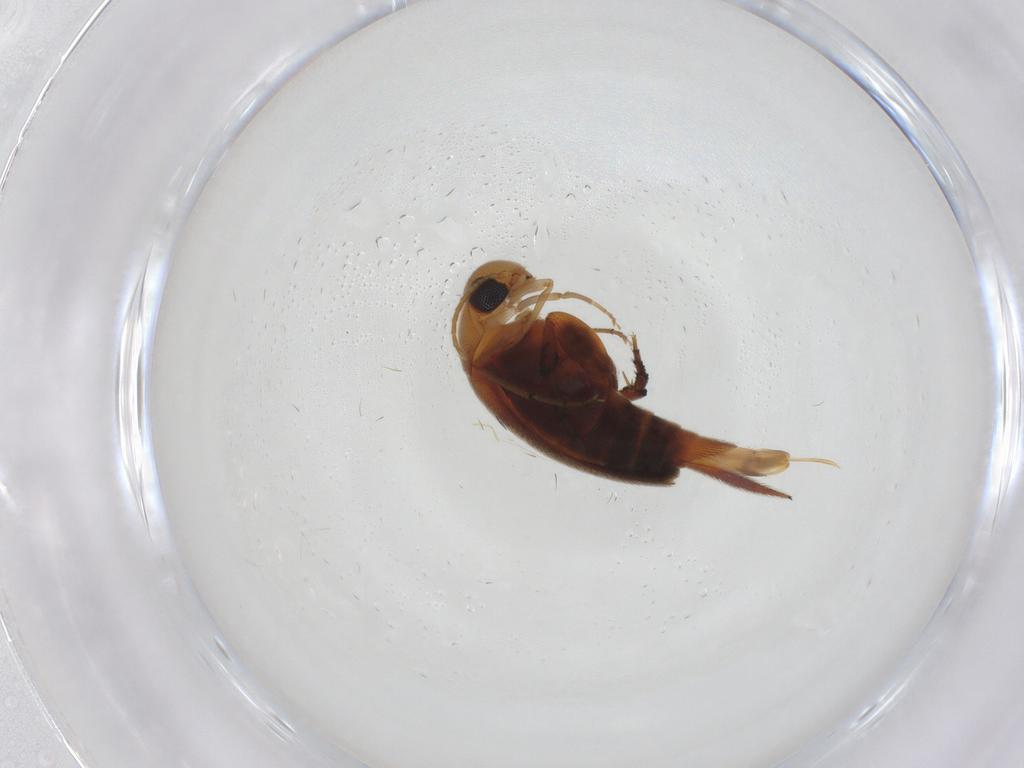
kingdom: Animalia
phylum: Arthropoda
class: Insecta
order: Coleoptera
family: Mordellidae
